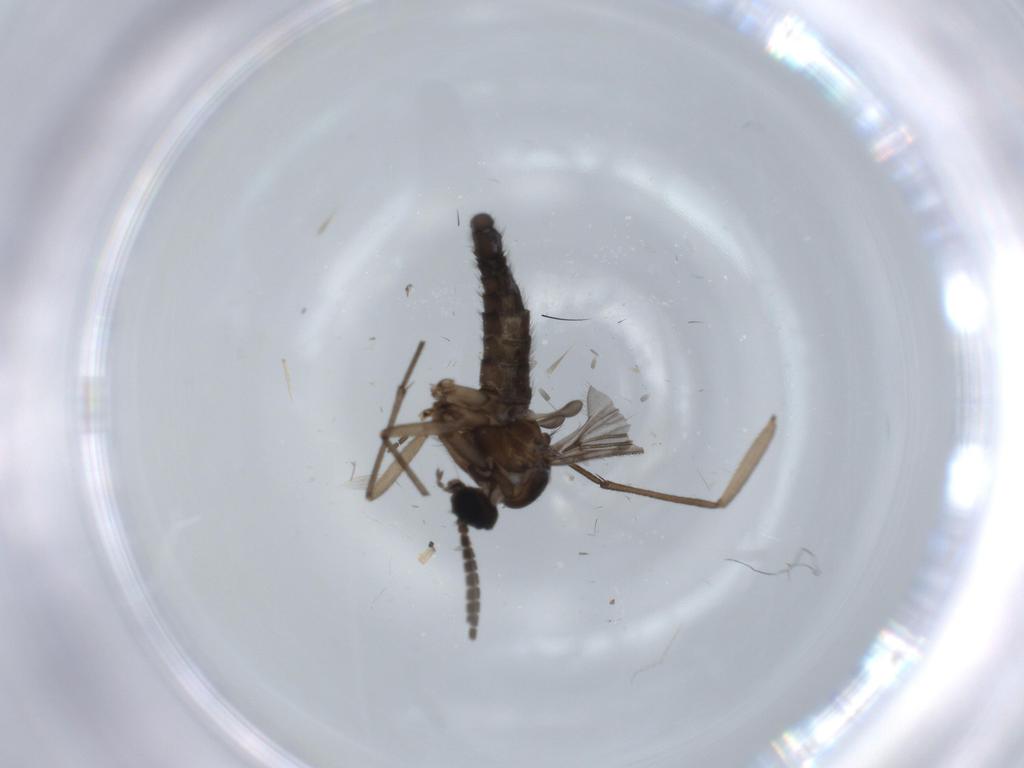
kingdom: Animalia
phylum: Arthropoda
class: Insecta
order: Diptera
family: Sciaridae
